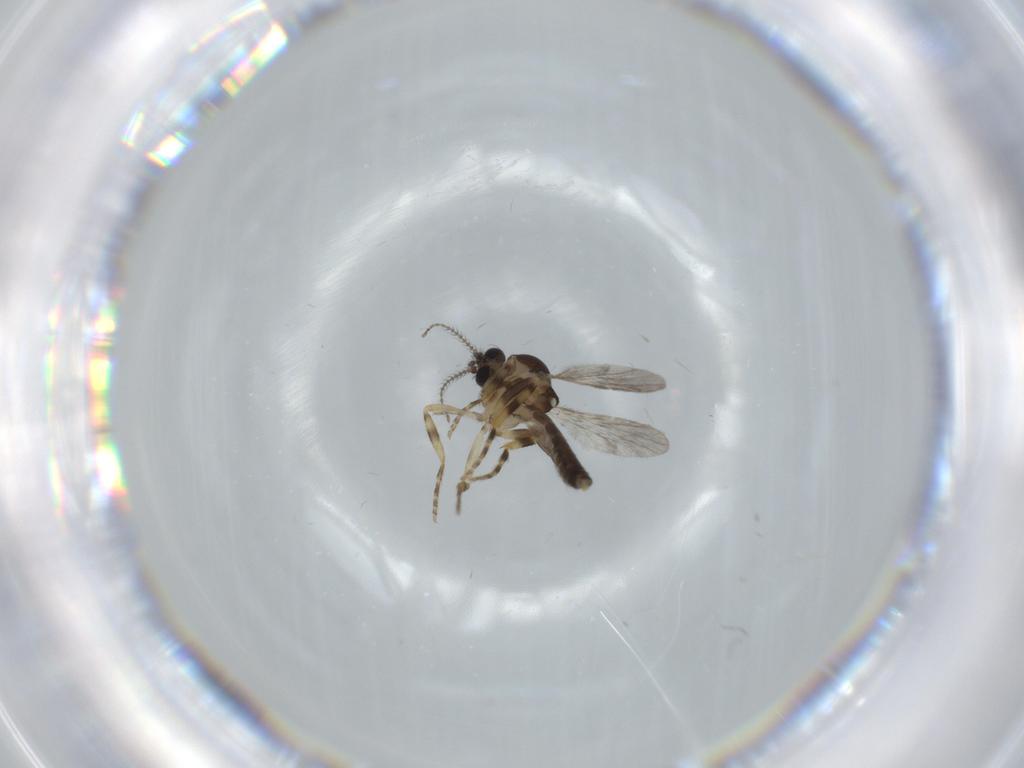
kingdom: Animalia
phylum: Arthropoda
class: Insecta
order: Diptera
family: Ceratopogonidae
